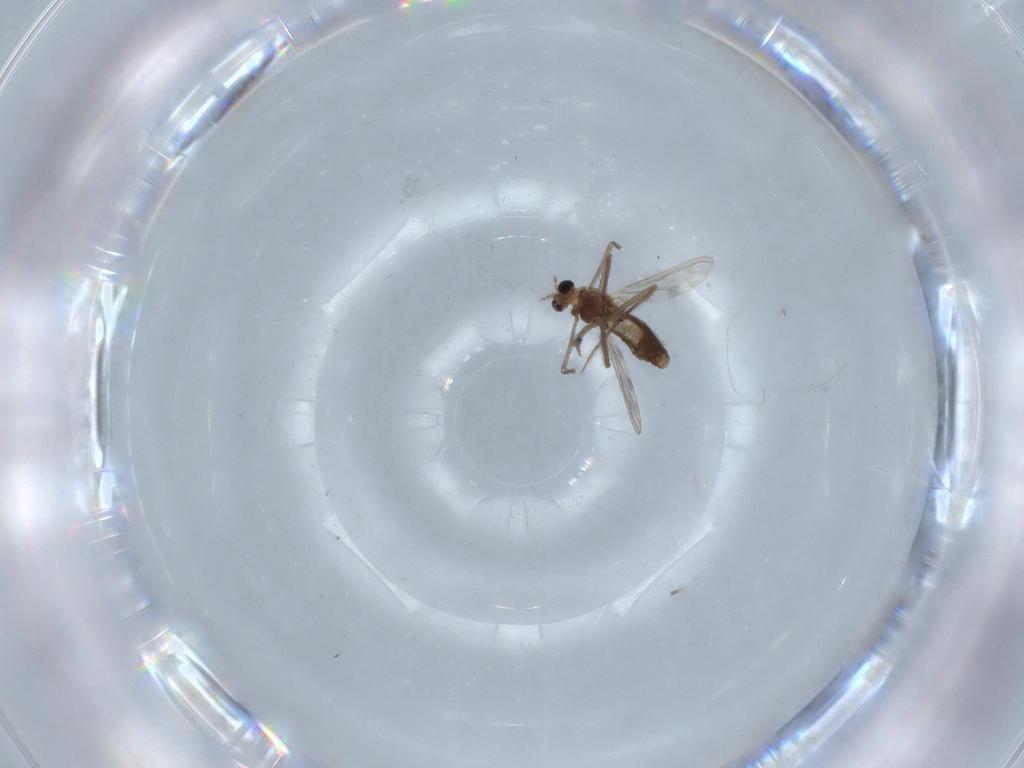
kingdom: Animalia
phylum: Arthropoda
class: Insecta
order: Diptera
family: Chironomidae
